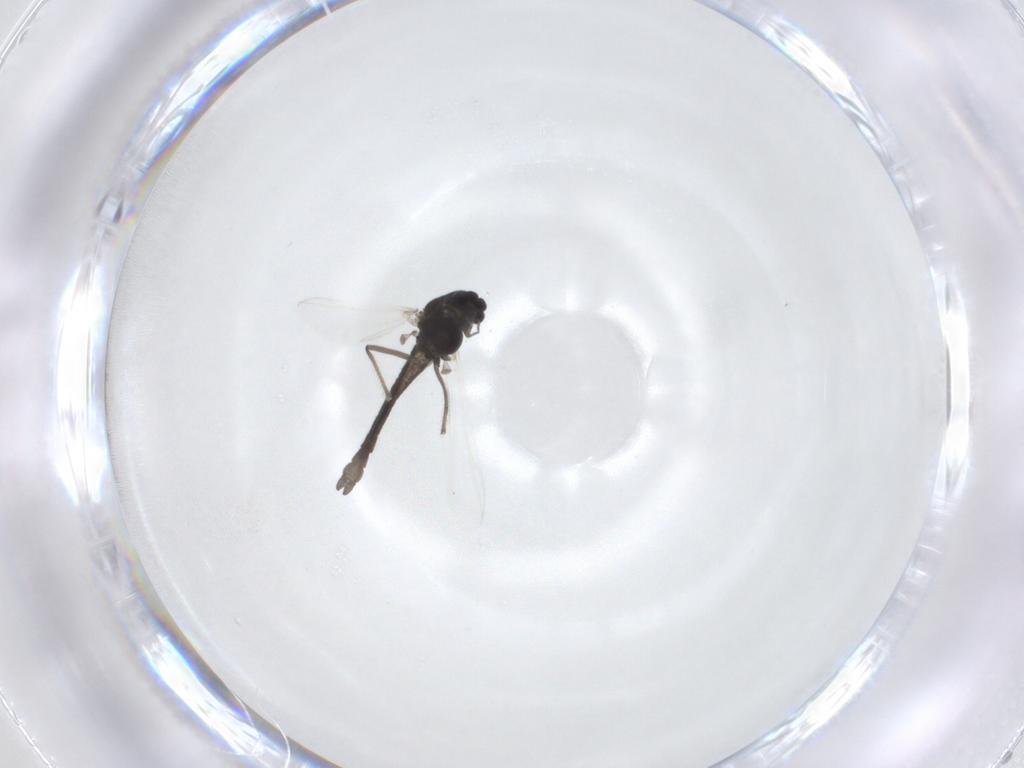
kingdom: Animalia
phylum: Arthropoda
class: Insecta
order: Diptera
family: Chironomidae
